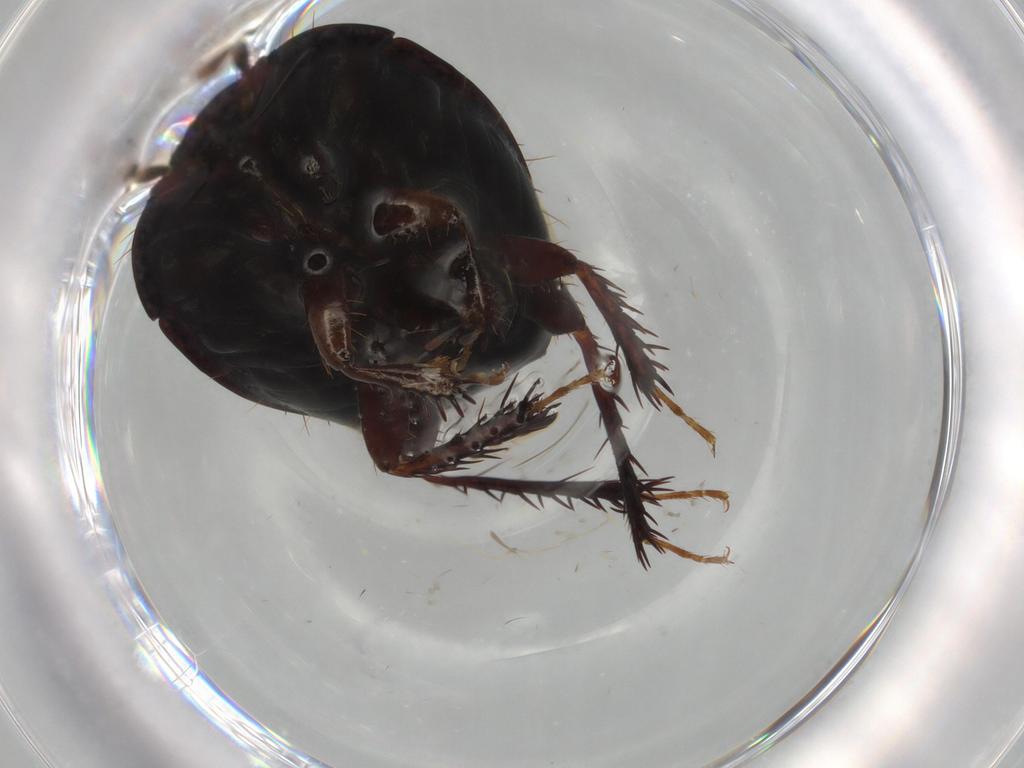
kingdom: Animalia
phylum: Arthropoda
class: Insecta
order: Hemiptera
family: Cydnidae
